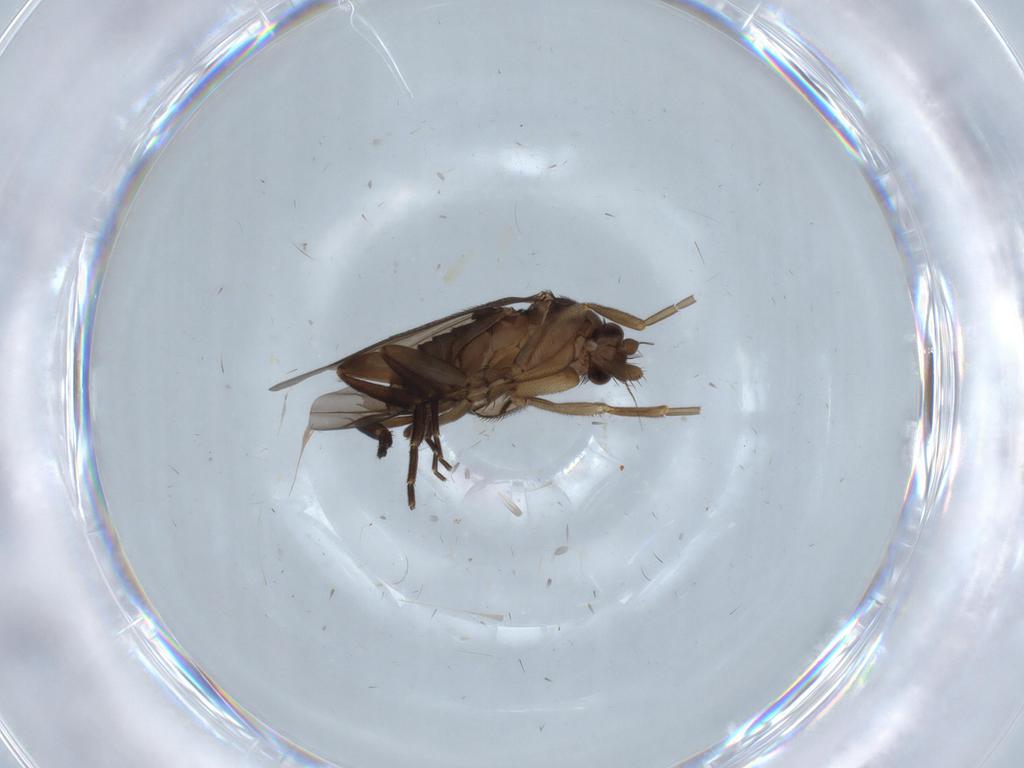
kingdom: Animalia
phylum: Arthropoda
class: Insecta
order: Diptera
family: Phoridae
